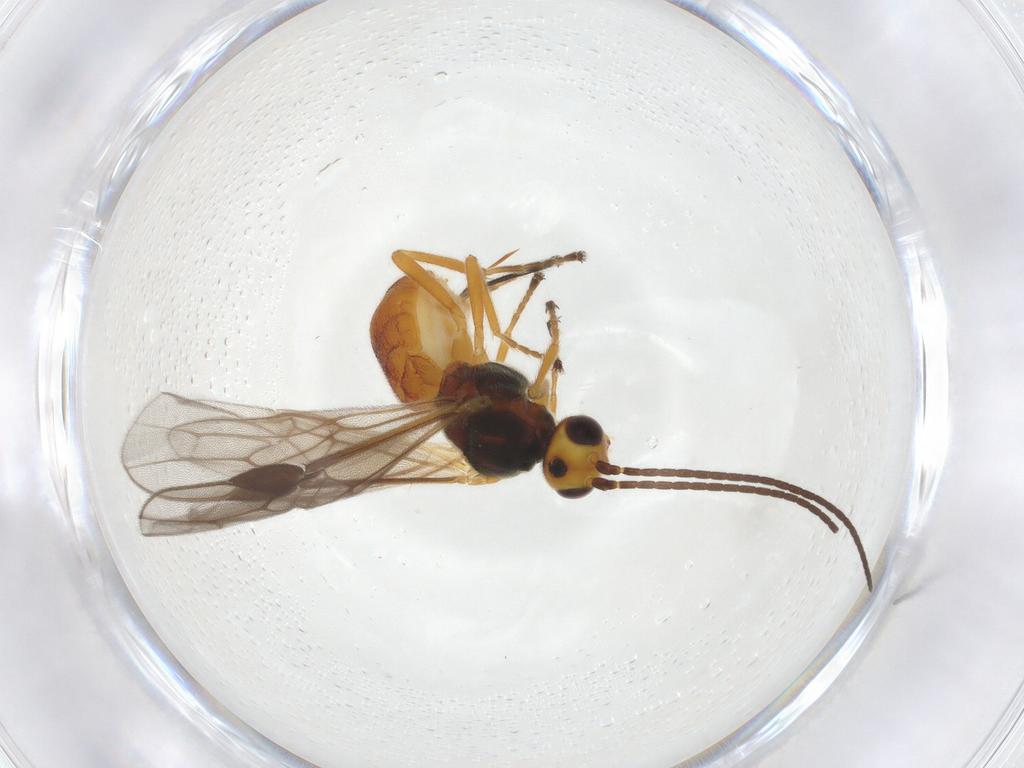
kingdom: Animalia
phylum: Arthropoda
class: Insecta
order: Hymenoptera
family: Braconidae
